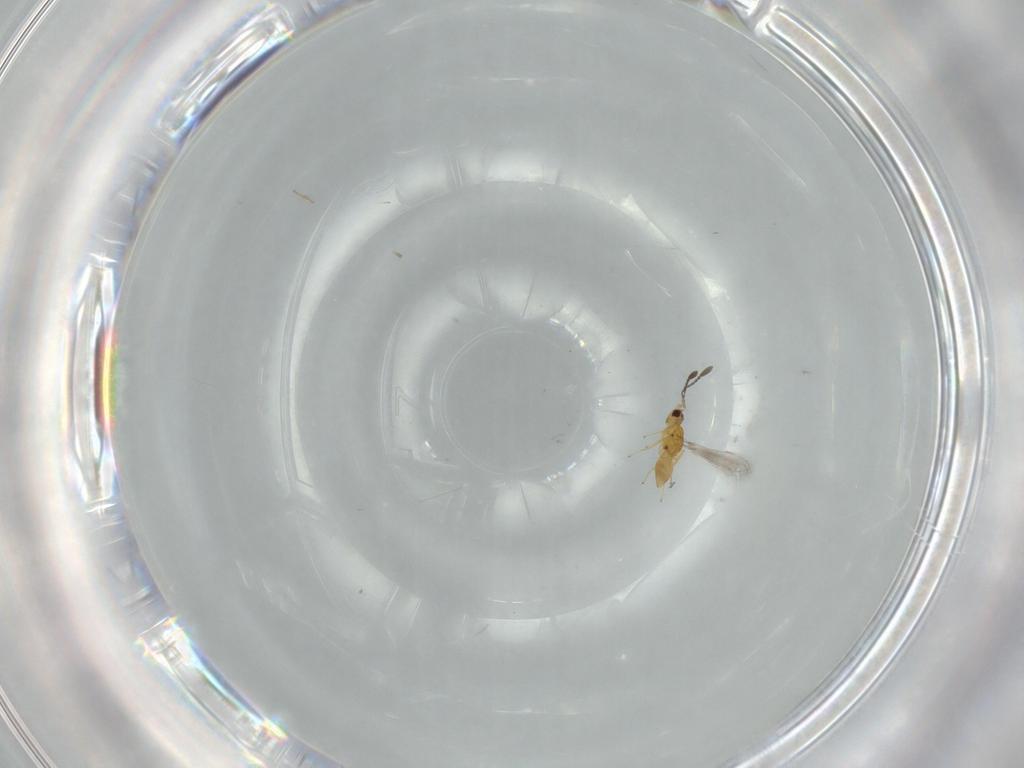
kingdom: Animalia
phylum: Arthropoda
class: Insecta
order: Hymenoptera
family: Mymaridae
